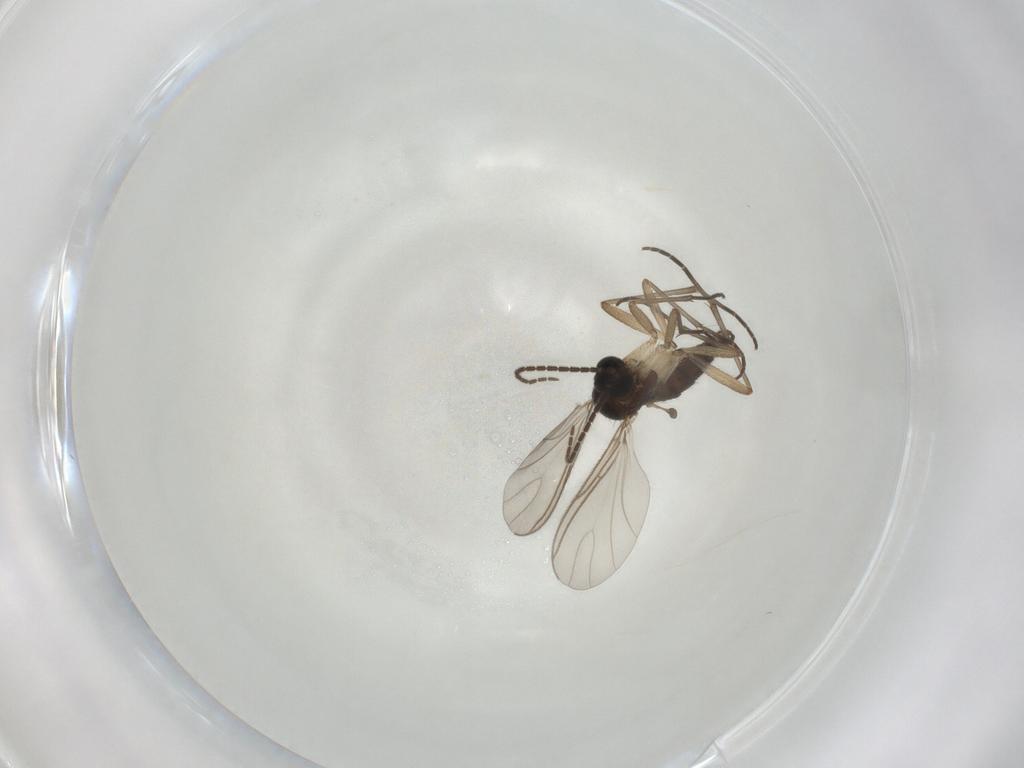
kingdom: Animalia
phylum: Arthropoda
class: Insecta
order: Diptera
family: Sciaridae
